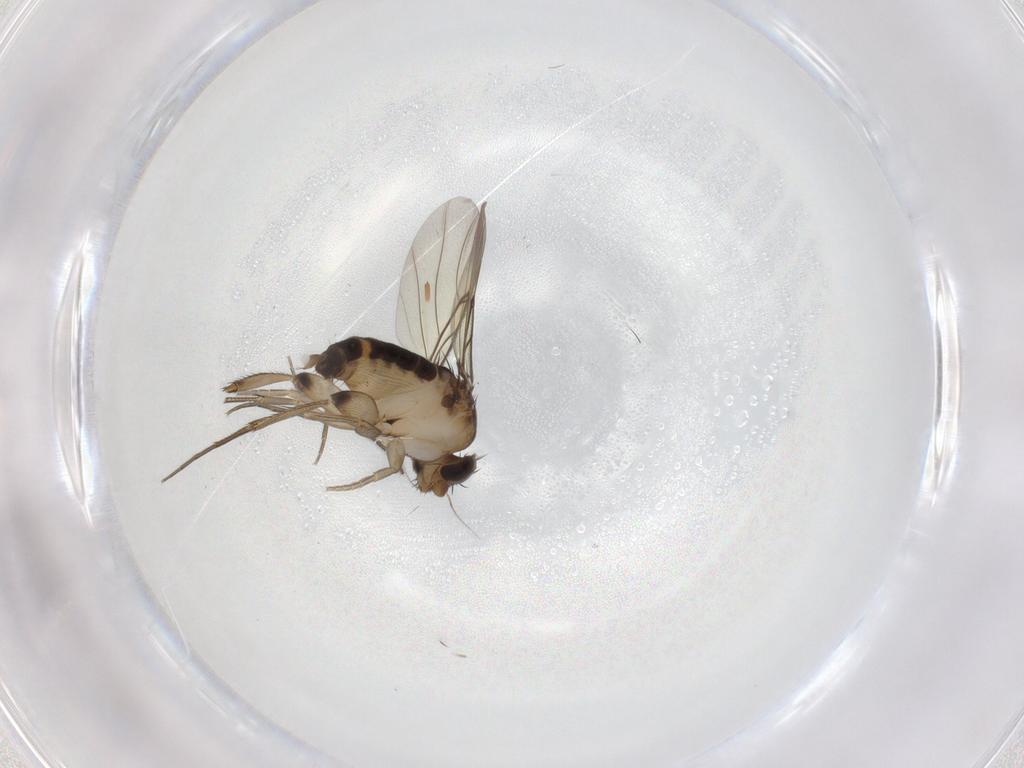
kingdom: Animalia
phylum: Arthropoda
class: Insecta
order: Diptera
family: Sciaridae
